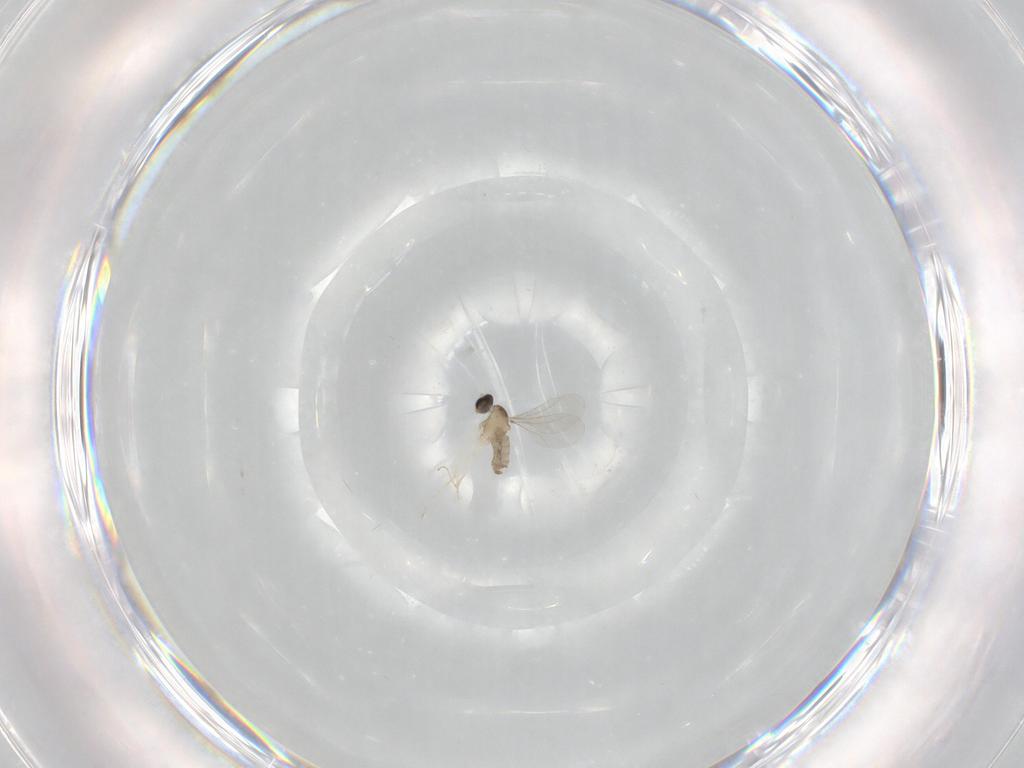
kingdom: Animalia
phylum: Arthropoda
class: Insecta
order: Diptera
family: Cecidomyiidae
